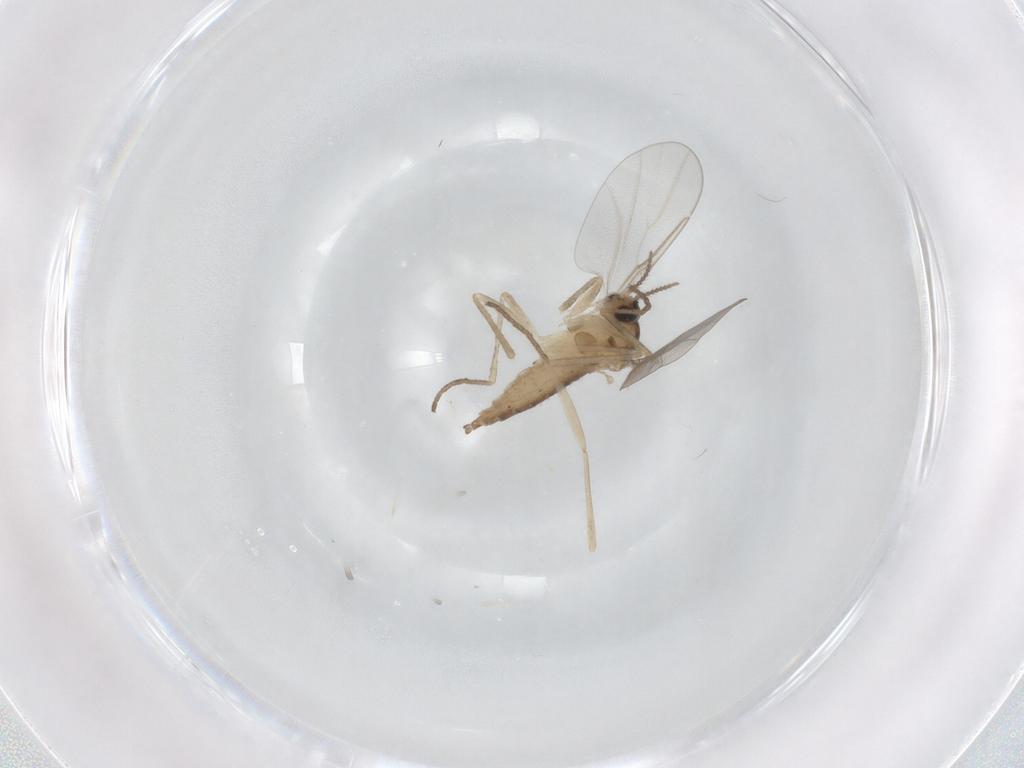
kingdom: Animalia
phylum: Arthropoda
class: Insecta
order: Diptera
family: Cecidomyiidae
